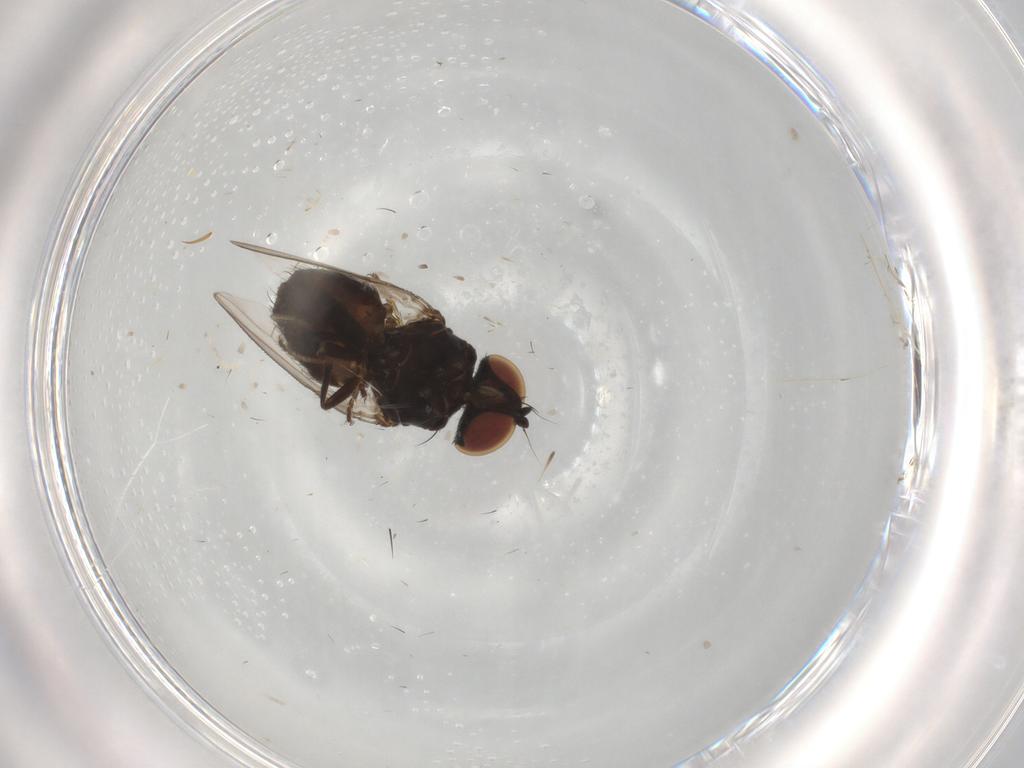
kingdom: Animalia
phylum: Arthropoda
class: Insecta
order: Diptera
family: Milichiidae
